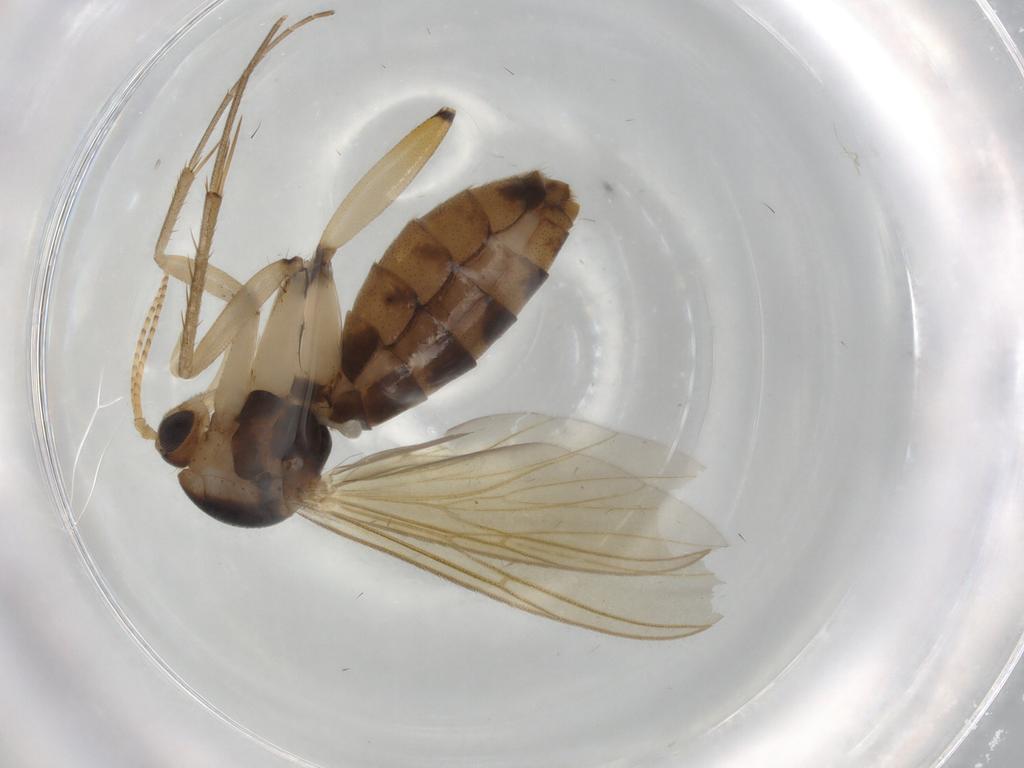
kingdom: Animalia
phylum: Arthropoda
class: Insecta
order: Diptera
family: Mycetophilidae
